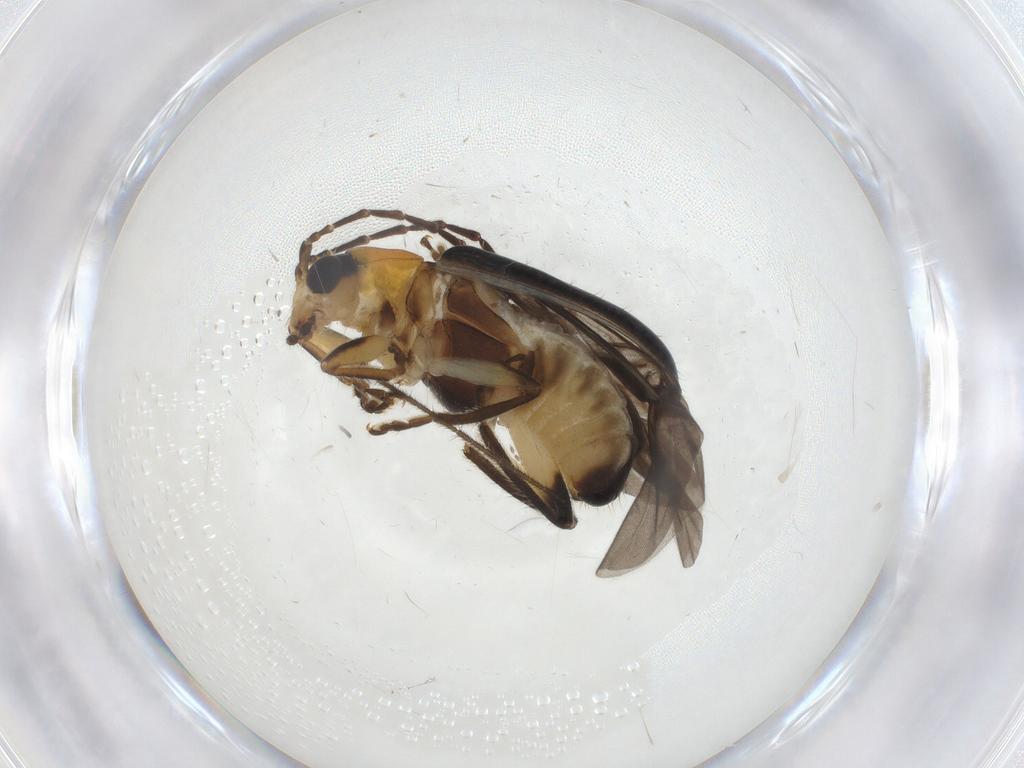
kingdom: Animalia
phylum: Arthropoda
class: Insecta
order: Coleoptera
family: Chrysomelidae
